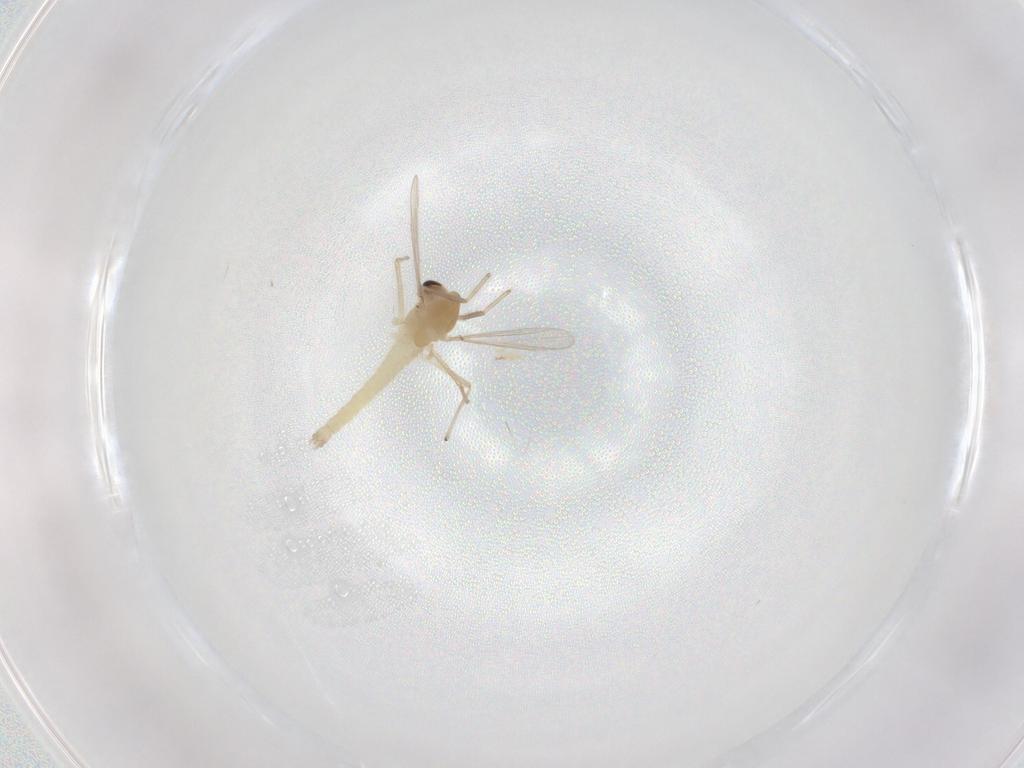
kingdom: Animalia
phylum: Arthropoda
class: Insecta
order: Diptera
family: Chironomidae
